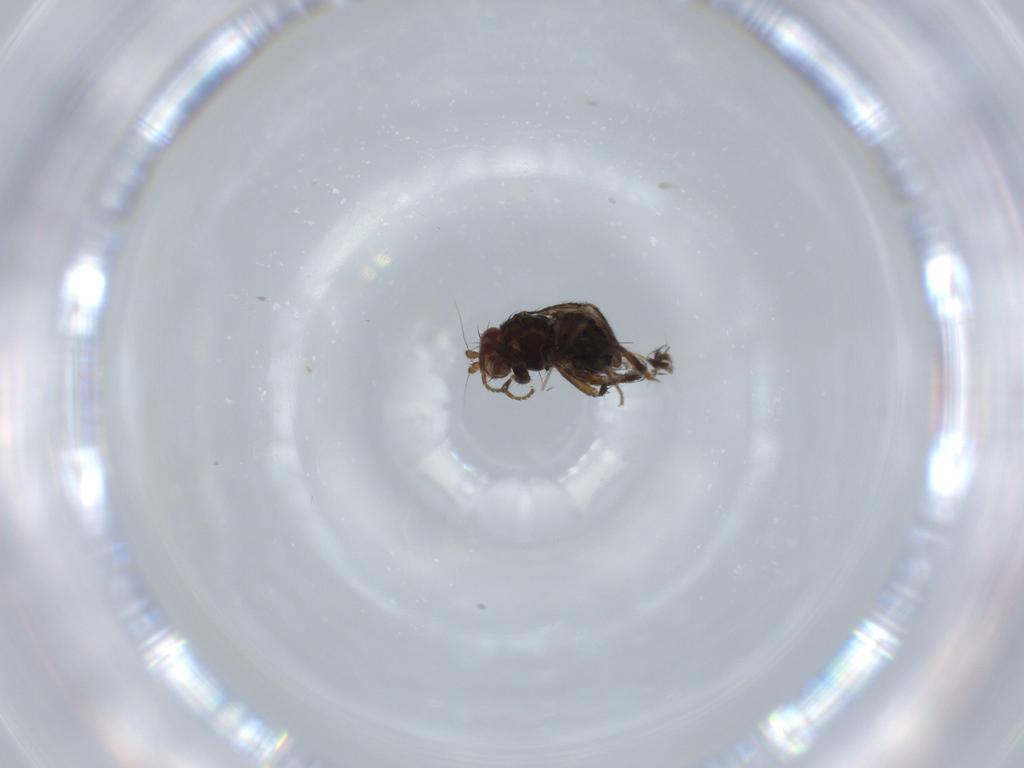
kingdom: Animalia
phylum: Arthropoda
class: Insecta
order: Diptera
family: Sphaeroceridae
